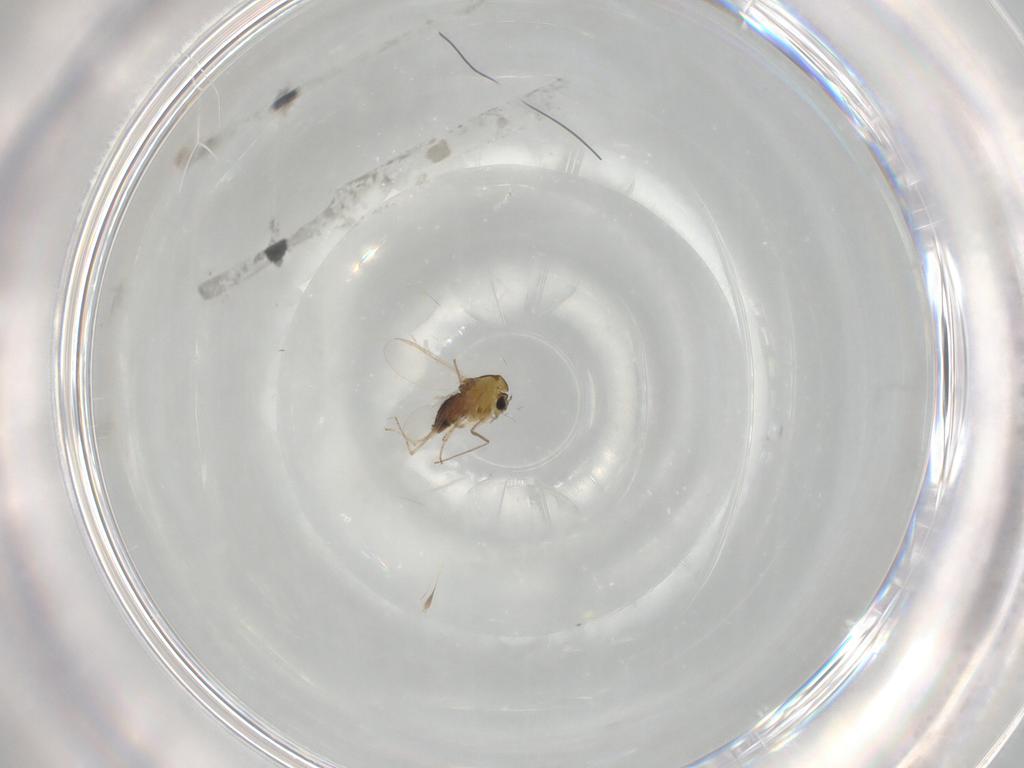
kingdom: Animalia
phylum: Arthropoda
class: Insecta
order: Diptera
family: Chironomidae
